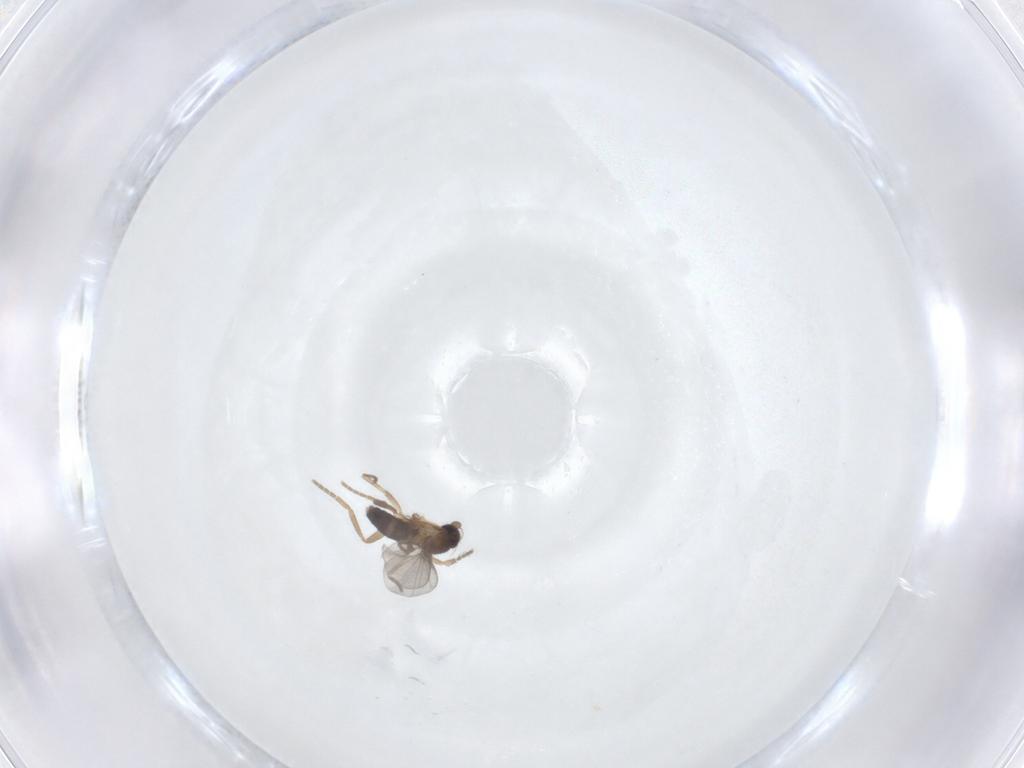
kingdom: Animalia
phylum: Arthropoda
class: Insecta
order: Diptera
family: Phoridae
